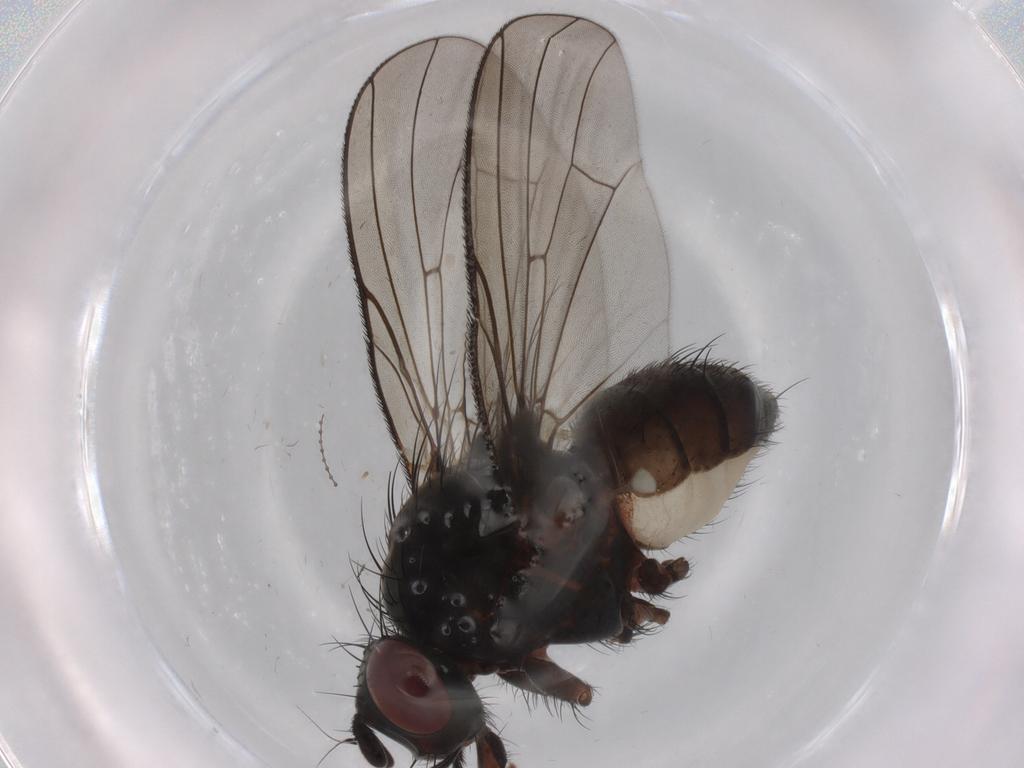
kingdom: Animalia
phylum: Arthropoda
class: Insecta
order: Diptera
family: Anthomyiidae
